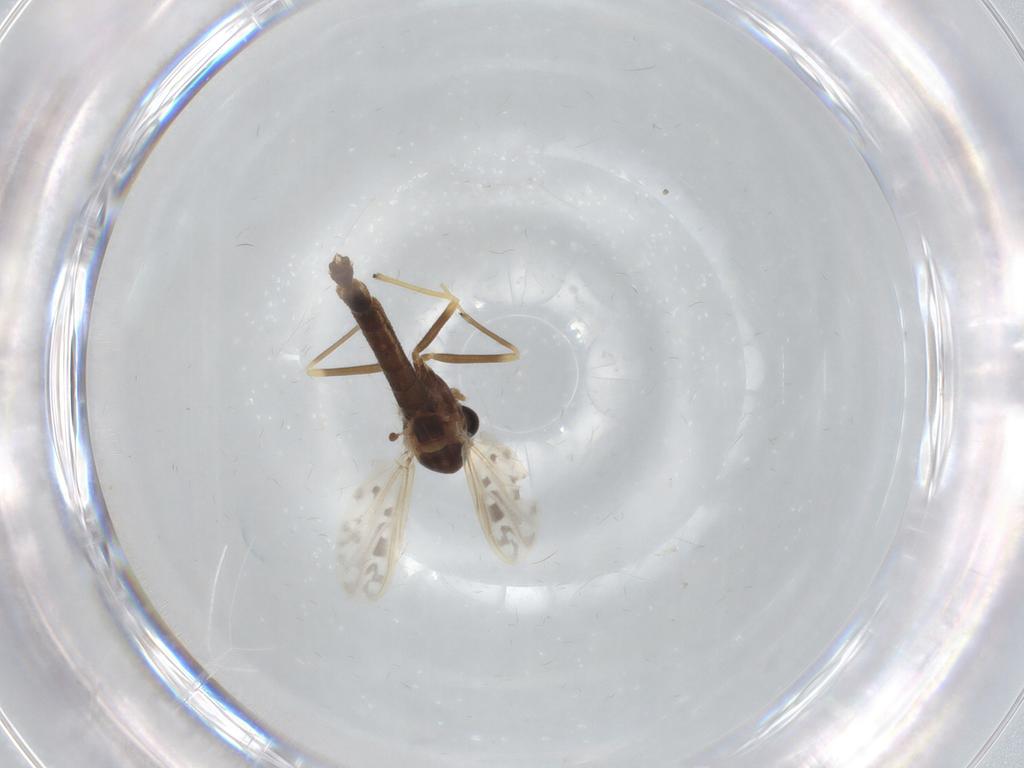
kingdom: Animalia
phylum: Arthropoda
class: Insecta
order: Diptera
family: Chironomidae
